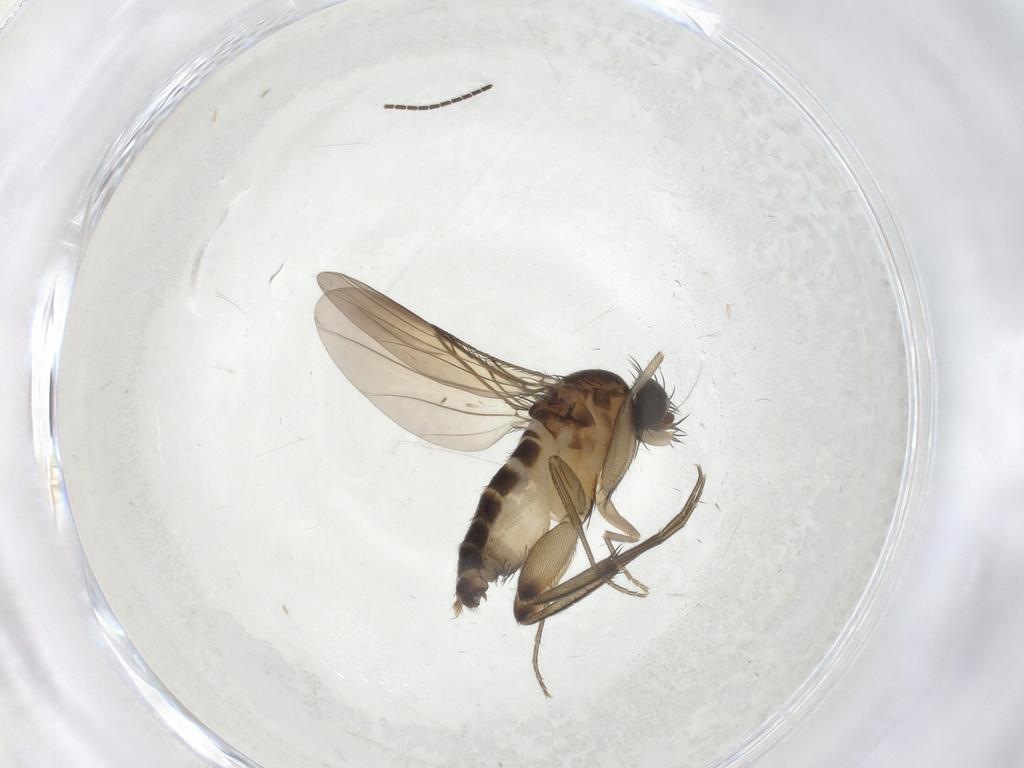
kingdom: Animalia
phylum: Arthropoda
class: Insecta
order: Diptera
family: Phoridae
